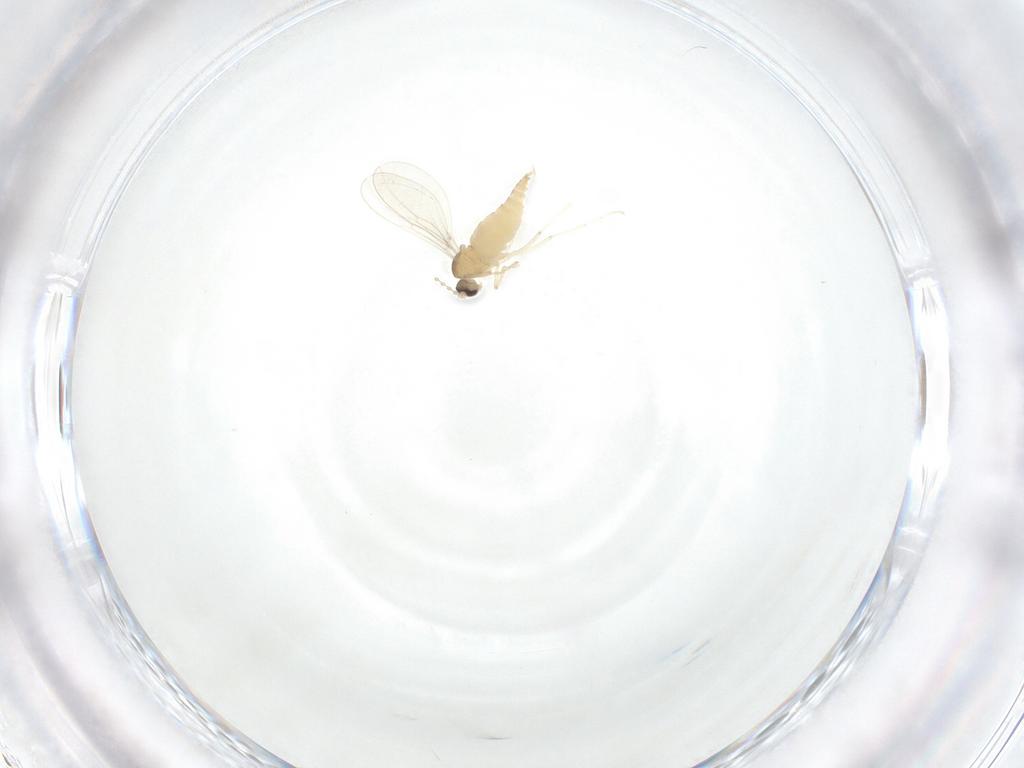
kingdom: Animalia
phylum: Arthropoda
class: Insecta
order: Diptera
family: Cecidomyiidae
